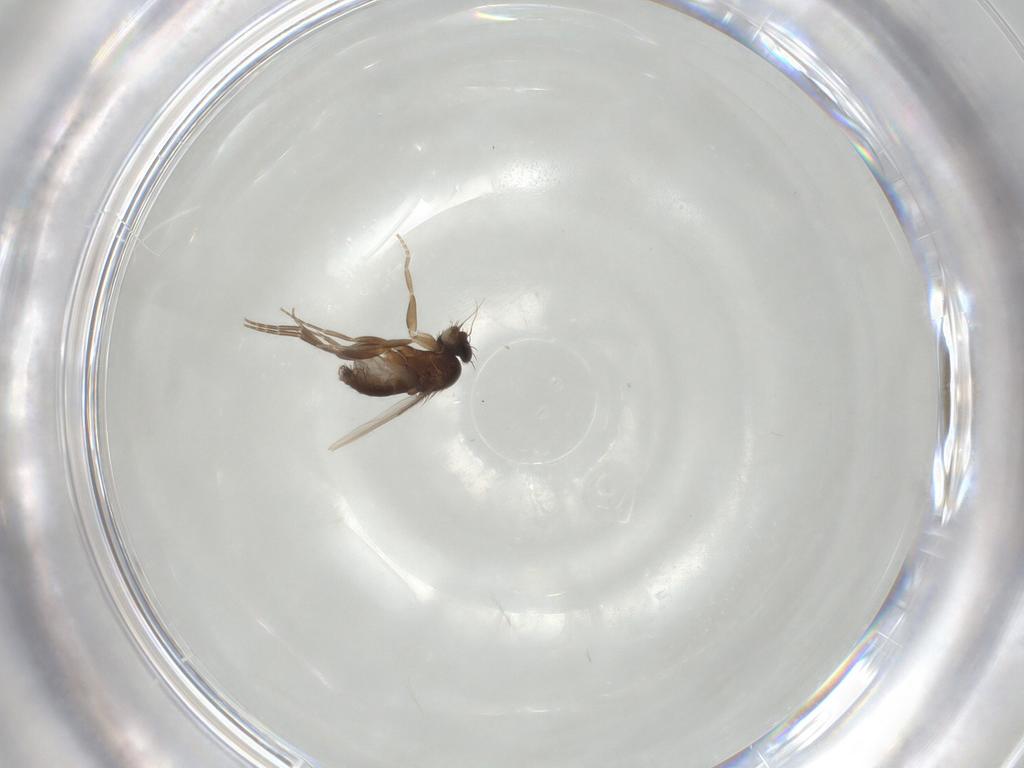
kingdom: Animalia
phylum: Arthropoda
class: Insecta
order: Diptera
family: Phoridae
